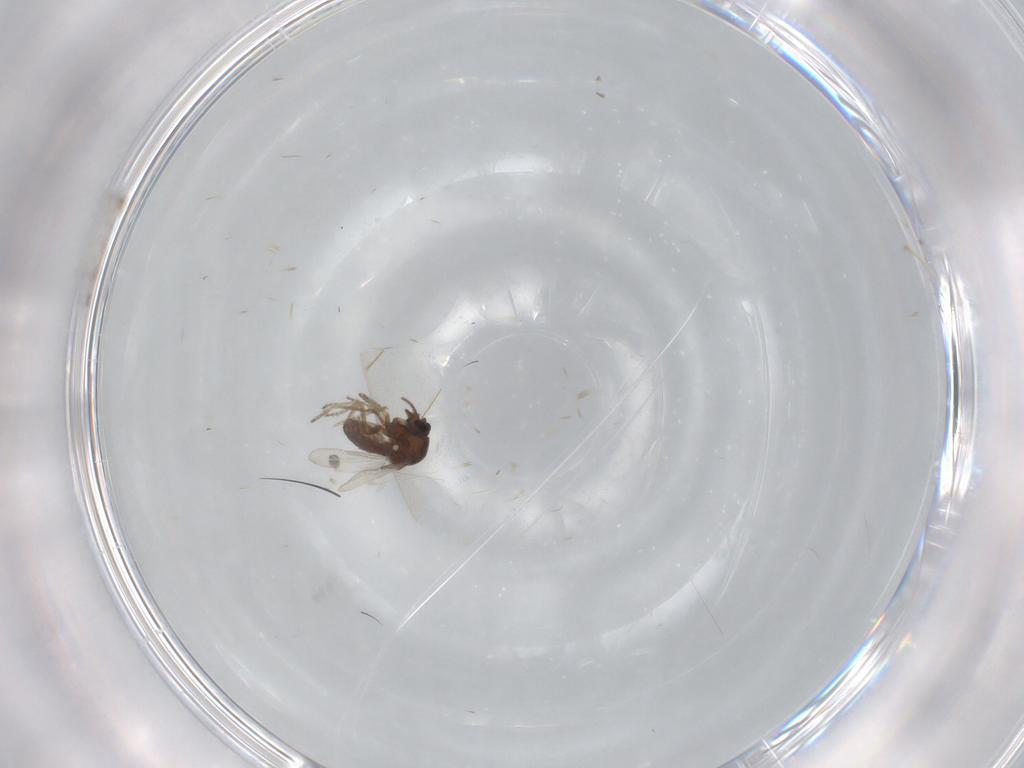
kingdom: Animalia
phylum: Arthropoda
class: Insecta
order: Diptera
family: Ceratopogonidae
